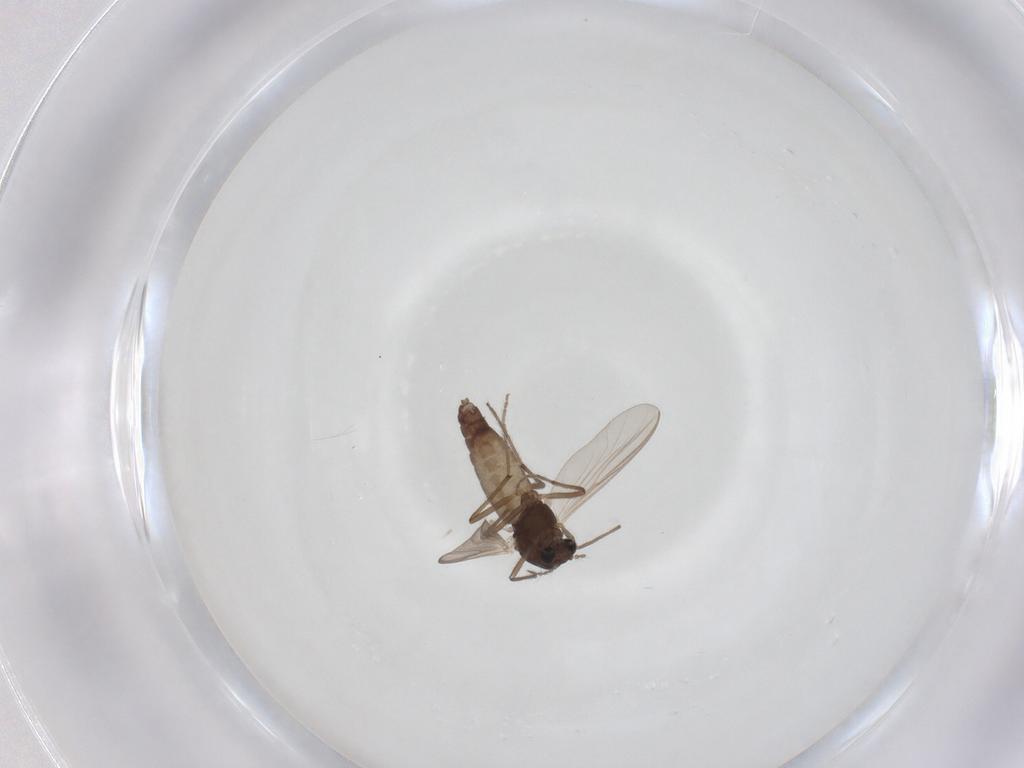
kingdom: Animalia
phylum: Arthropoda
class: Insecta
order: Diptera
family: Chironomidae
